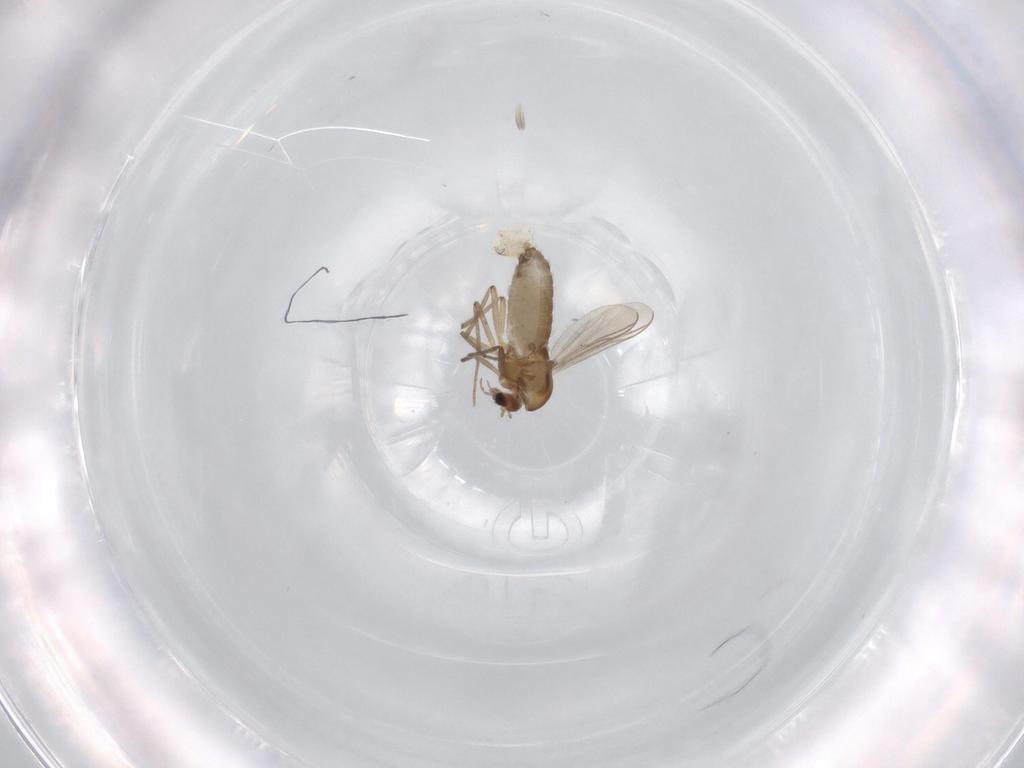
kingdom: Animalia
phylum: Arthropoda
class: Insecta
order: Diptera
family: Chironomidae
